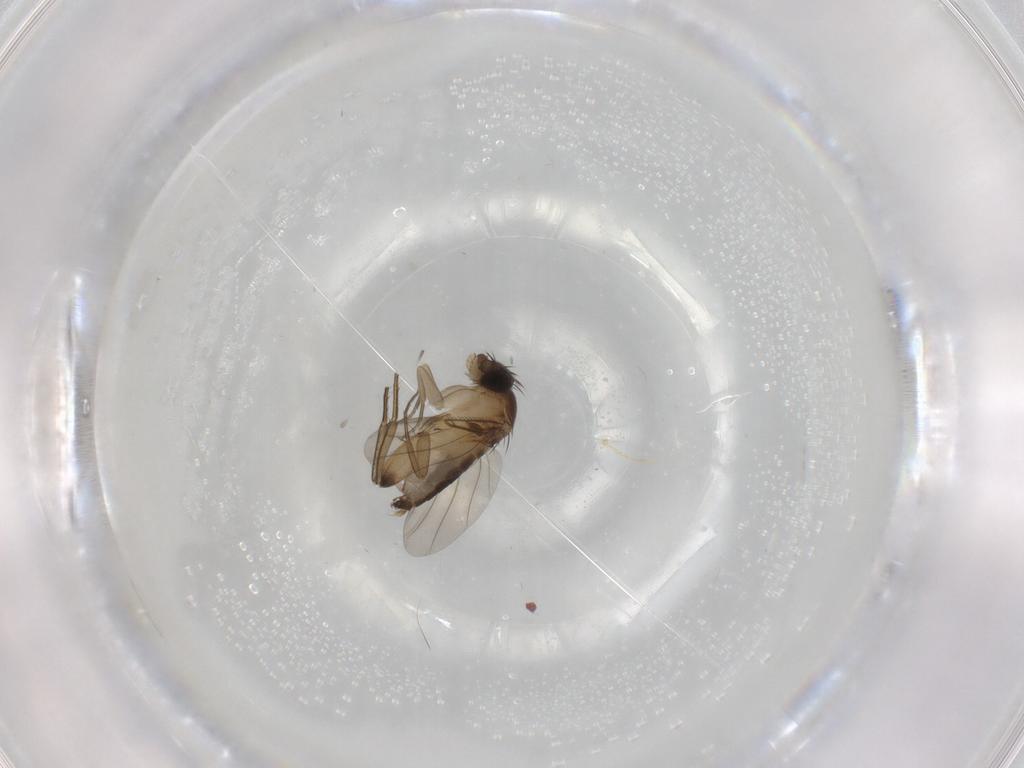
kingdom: Animalia
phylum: Arthropoda
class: Insecta
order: Diptera
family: Phoridae
